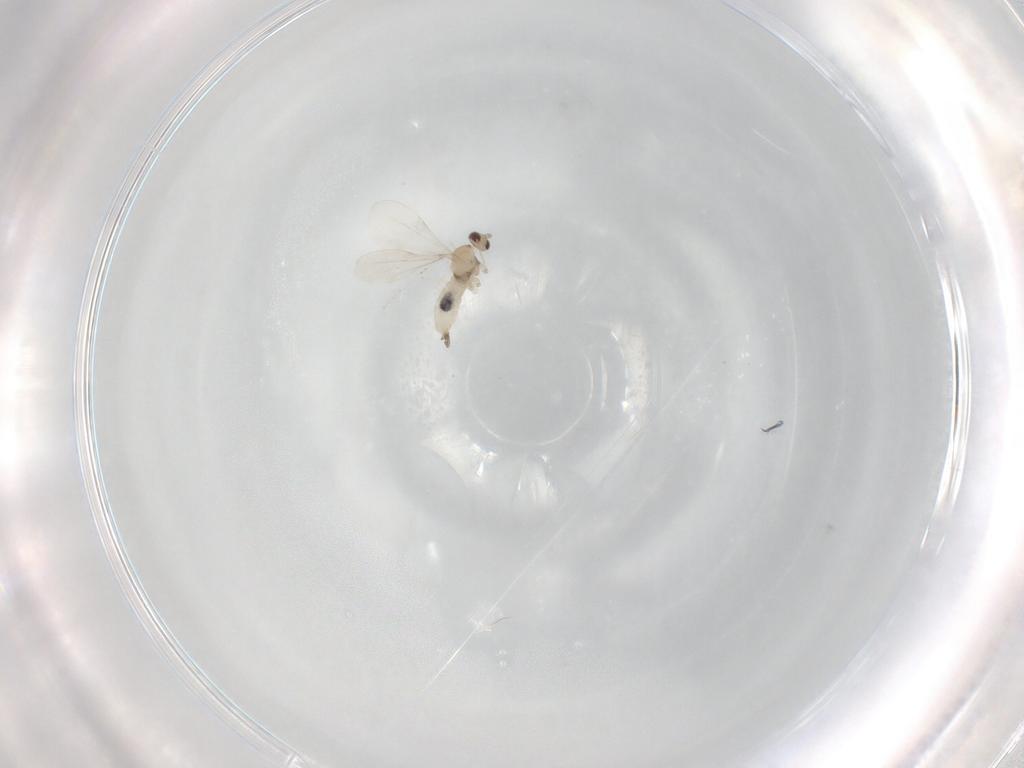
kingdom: Animalia
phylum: Arthropoda
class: Insecta
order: Diptera
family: Cecidomyiidae
